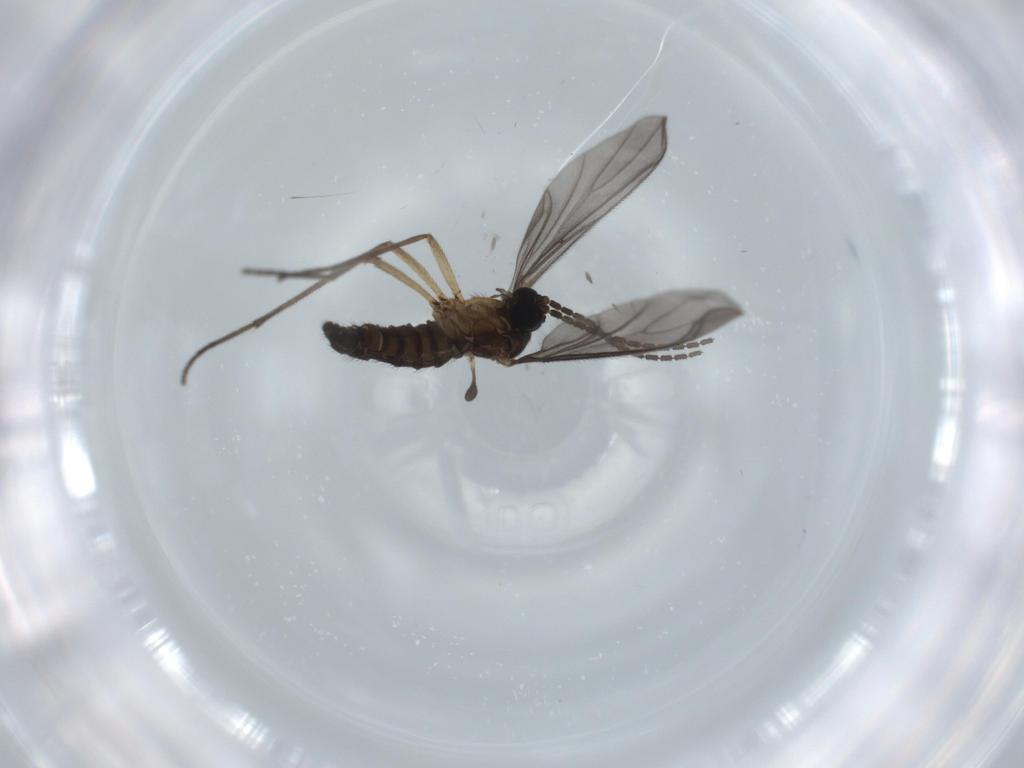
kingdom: Animalia
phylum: Arthropoda
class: Insecta
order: Diptera
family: Sciaridae
